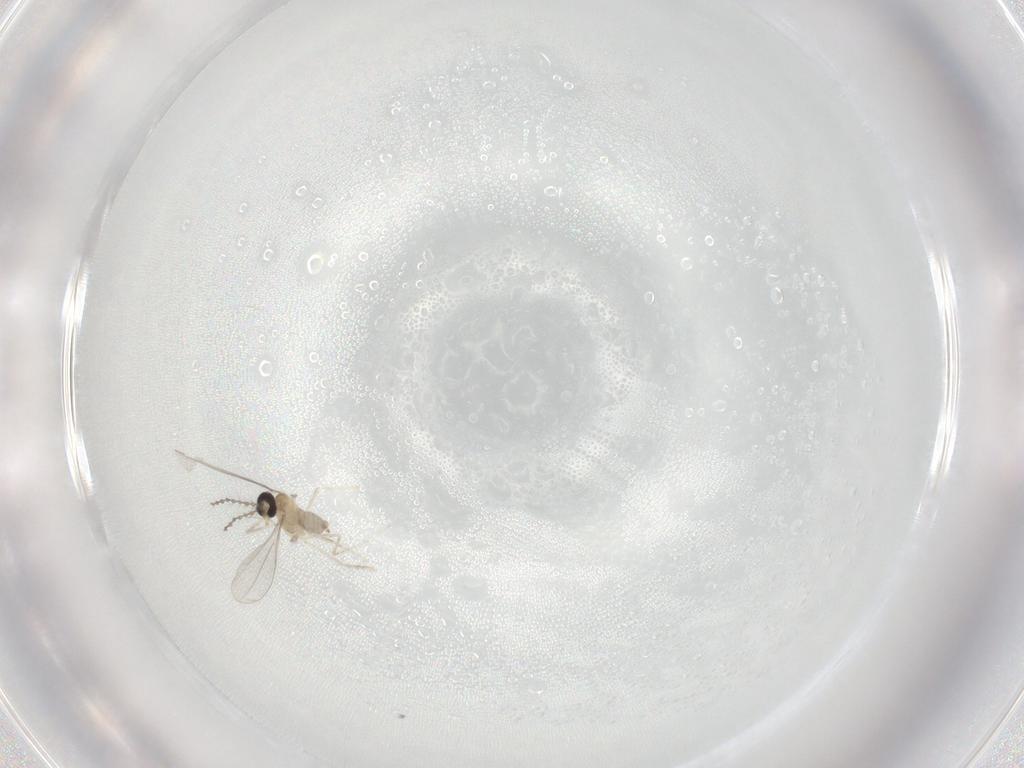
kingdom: Animalia
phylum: Arthropoda
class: Insecta
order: Diptera
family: Cecidomyiidae
